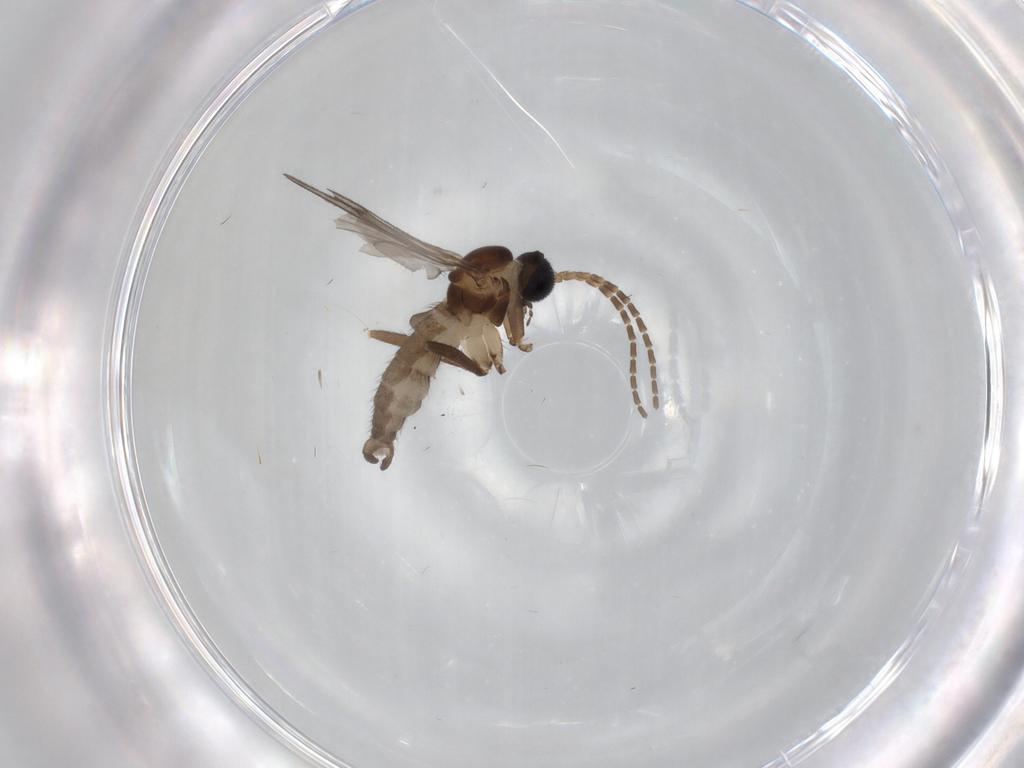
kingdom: Animalia
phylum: Arthropoda
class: Insecta
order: Diptera
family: Sciaridae
